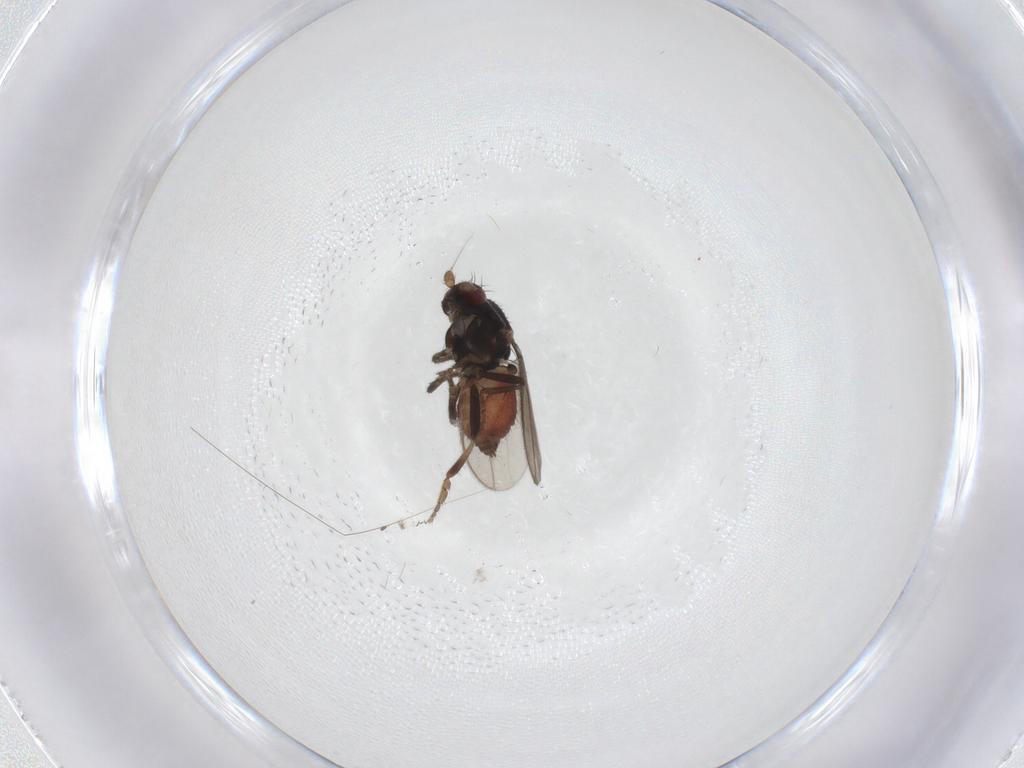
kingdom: Animalia
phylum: Arthropoda
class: Insecta
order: Diptera
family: Sphaeroceridae
